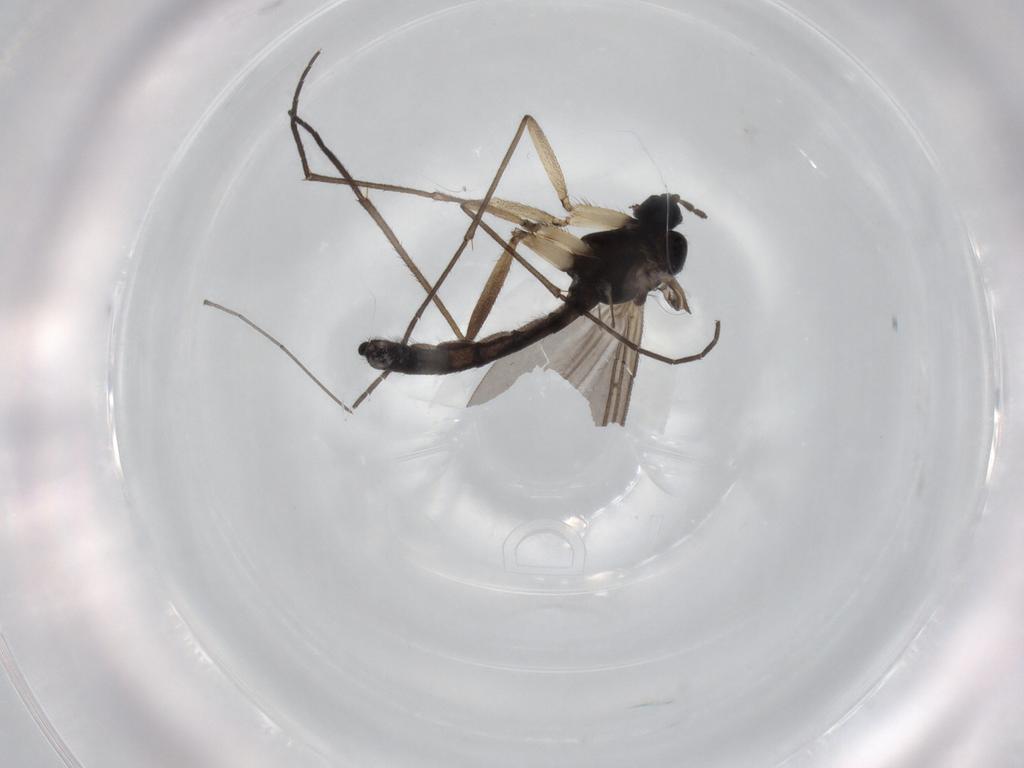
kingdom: Animalia
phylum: Arthropoda
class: Insecta
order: Diptera
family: Sciaridae
